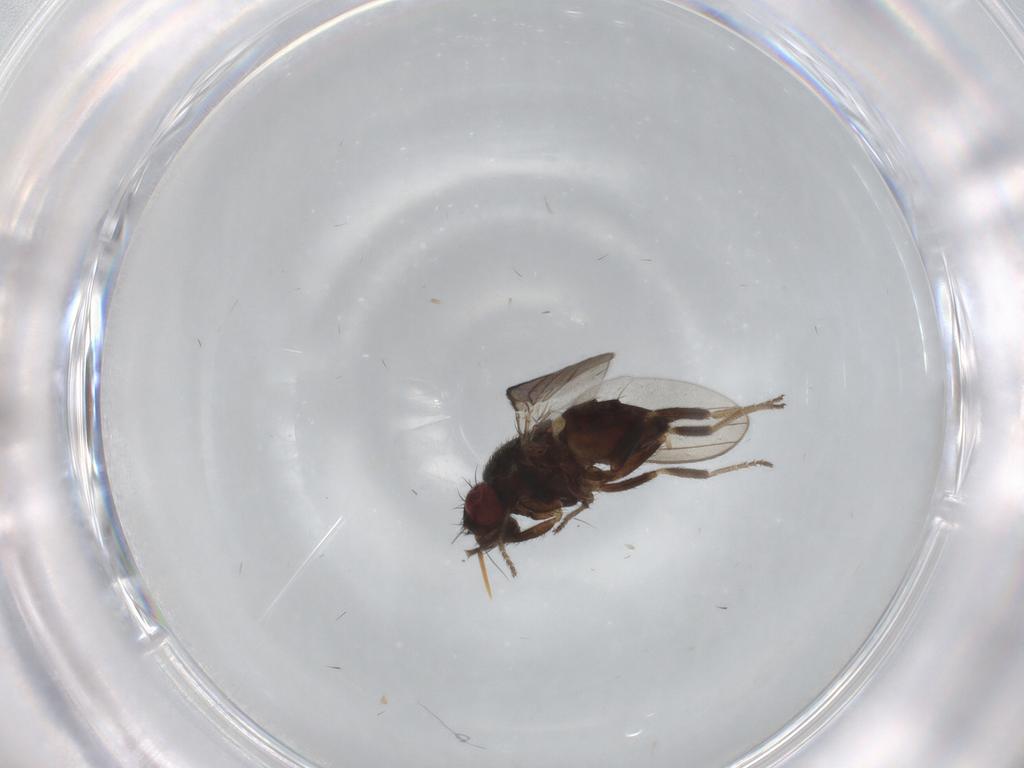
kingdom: Animalia
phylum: Arthropoda
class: Insecta
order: Diptera
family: Milichiidae
